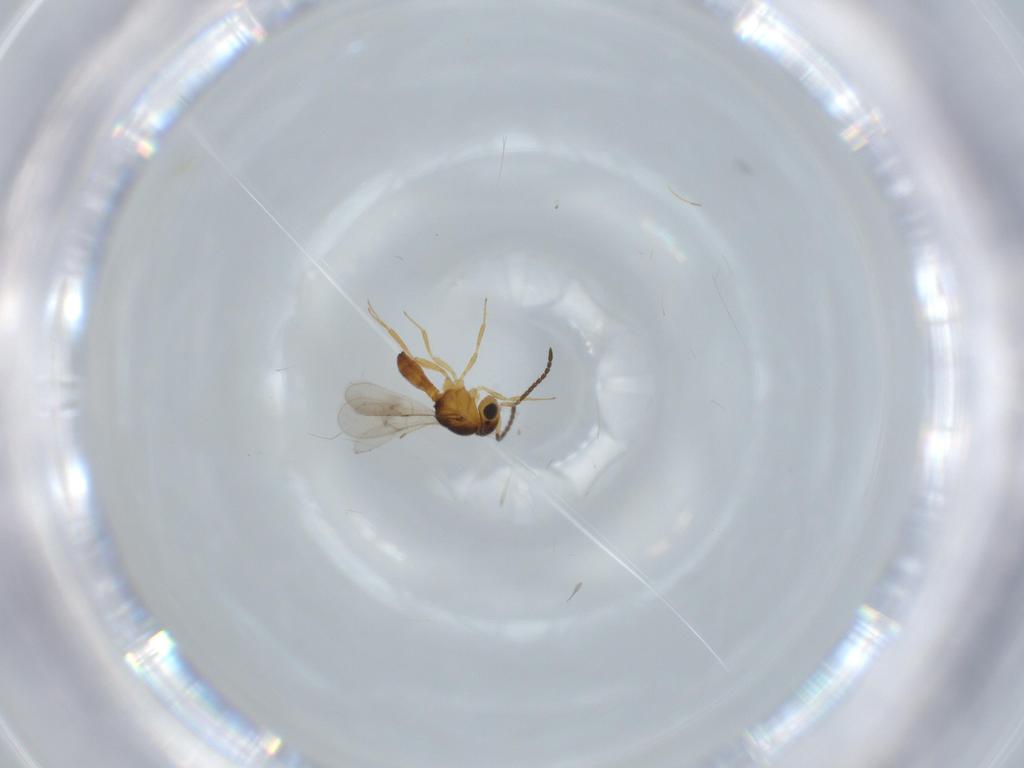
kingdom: Animalia
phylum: Arthropoda
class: Insecta
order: Hymenoptera
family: Scelionidae
